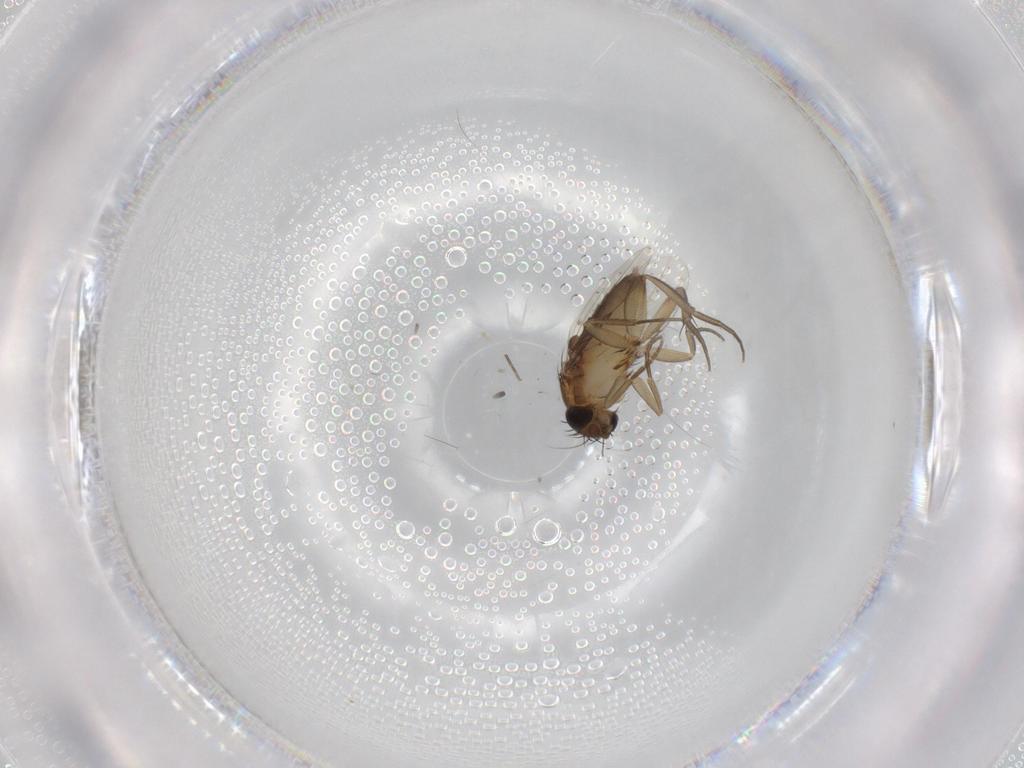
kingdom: Animalia
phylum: Arthropoda
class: Insecta
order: Diptera
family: Phoridae
